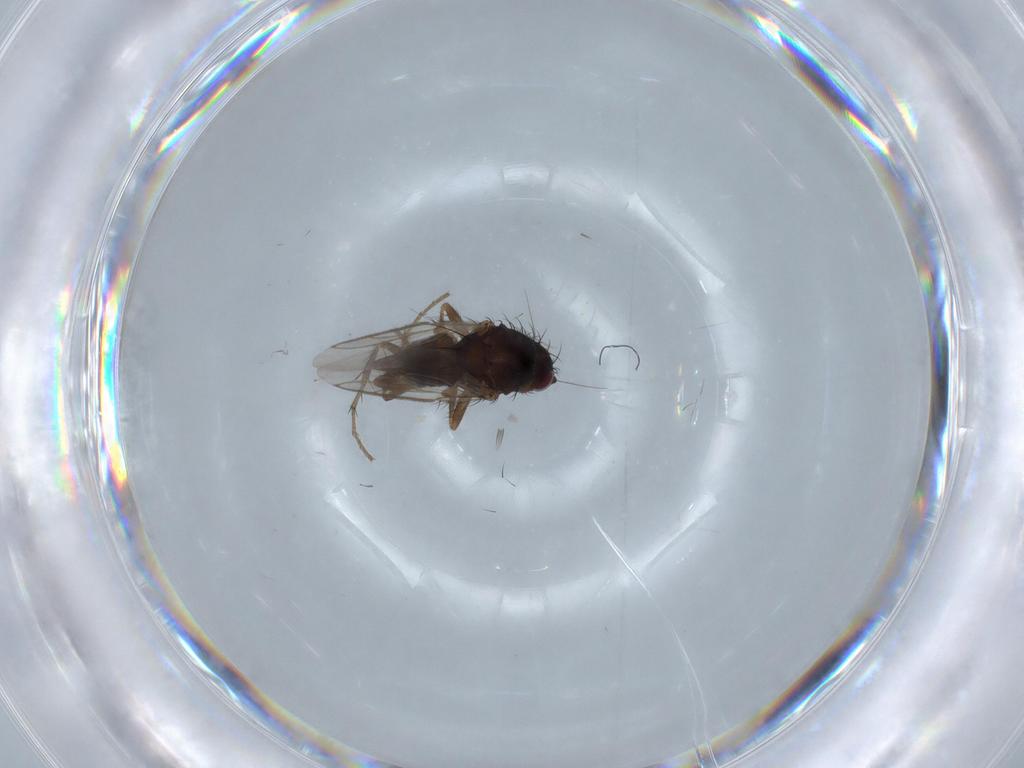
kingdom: Animalia
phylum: Arthropoda
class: Insecta
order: Diptera
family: Sphaeroceridae
